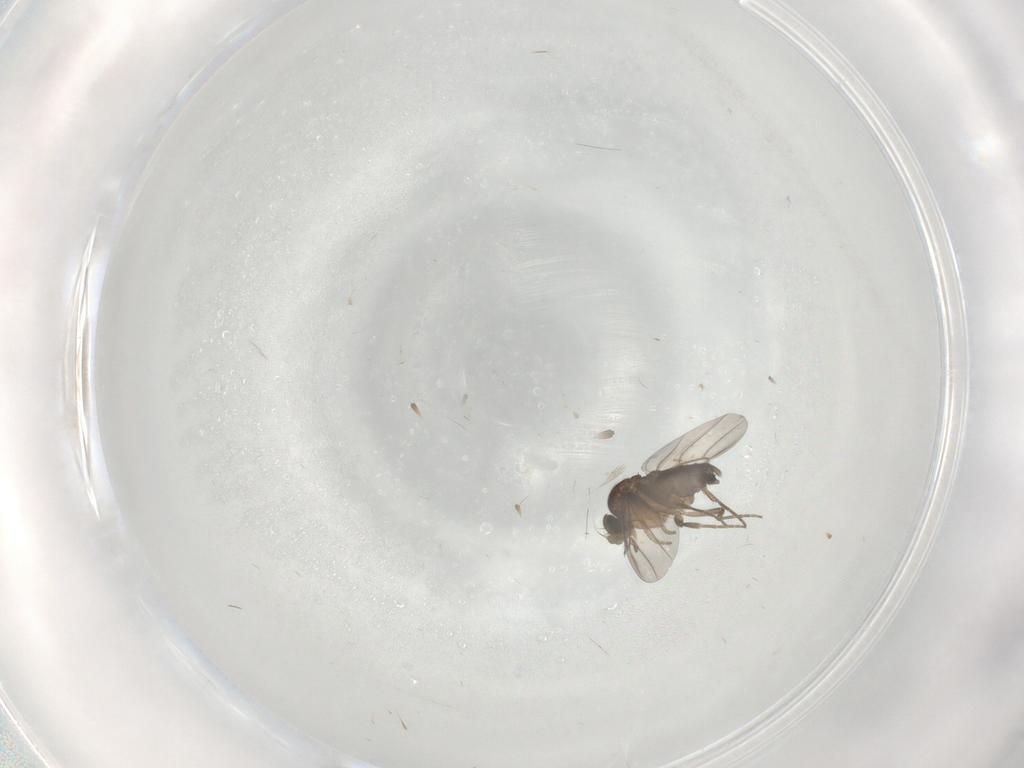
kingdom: Animalia
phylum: Arthropoda
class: Insecta
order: Diptera
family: Phoridae
